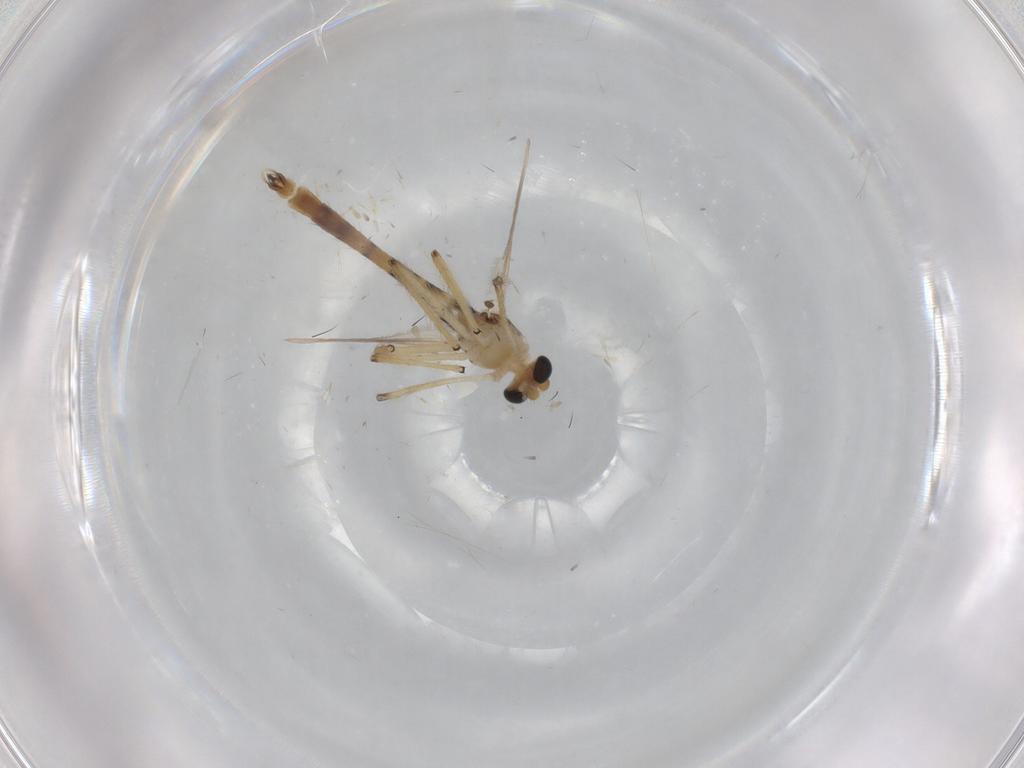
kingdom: Animalia
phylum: Arthropoda
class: Insecta
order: Diptera
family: Chironomidae
